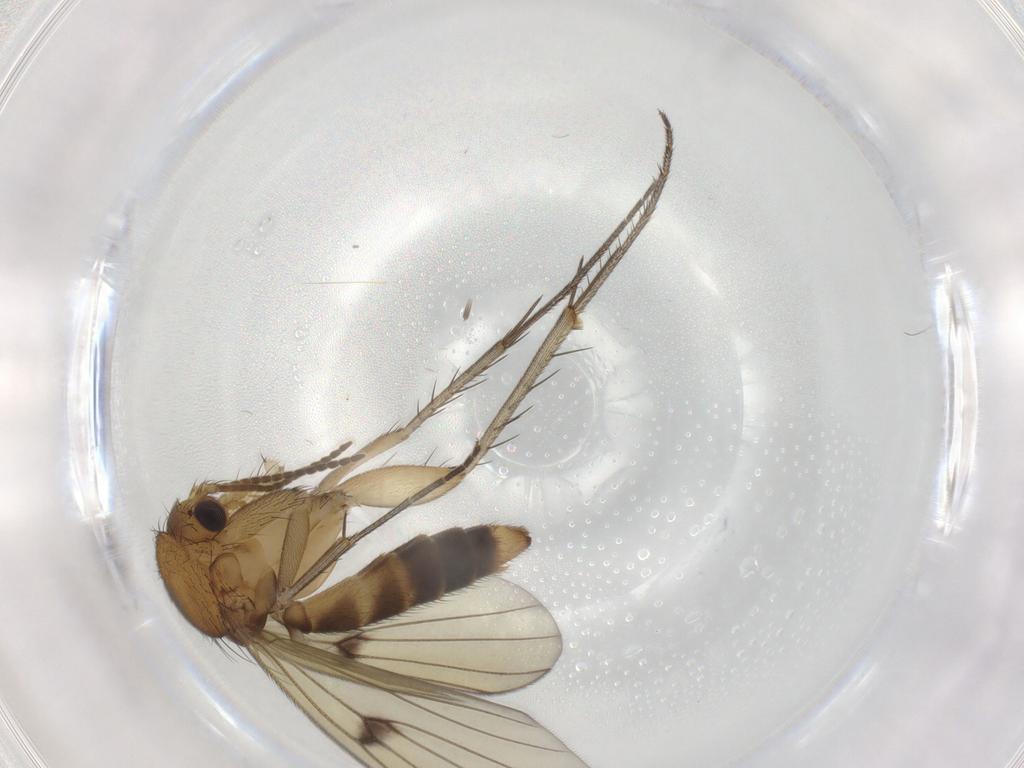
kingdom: Animalia
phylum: Arthropoda
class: Insecta
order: Diptera
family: Mycetophilidae
